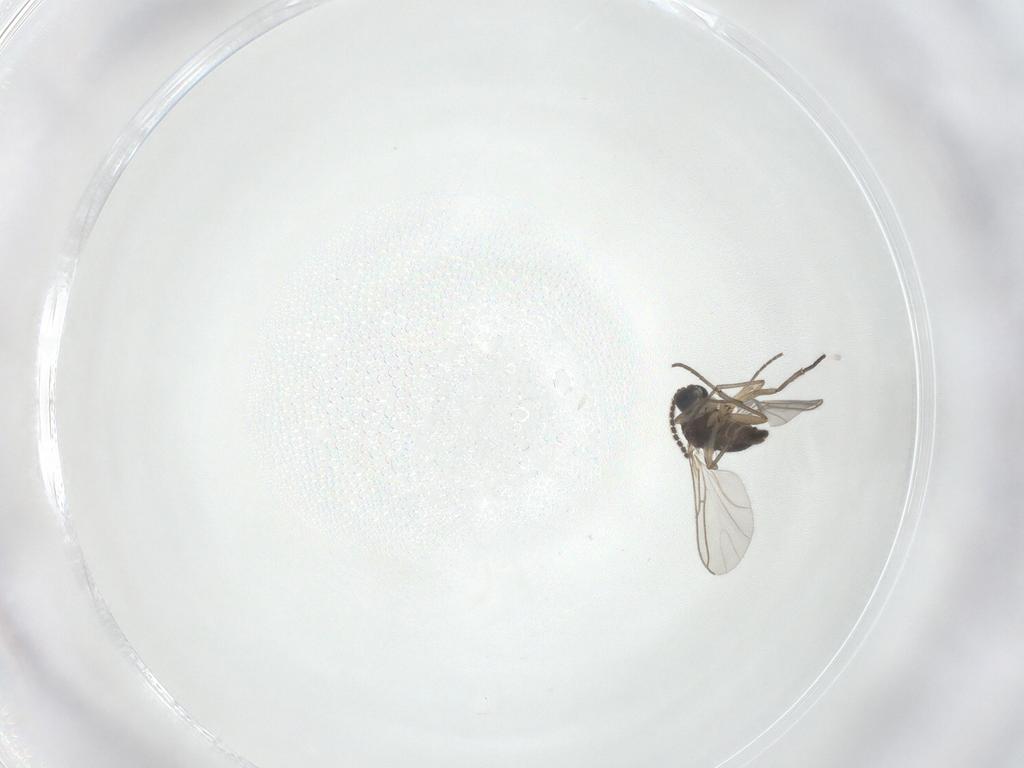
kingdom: Animalia
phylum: Arthropoda
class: Insecta
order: Diptera
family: Sciaridae
